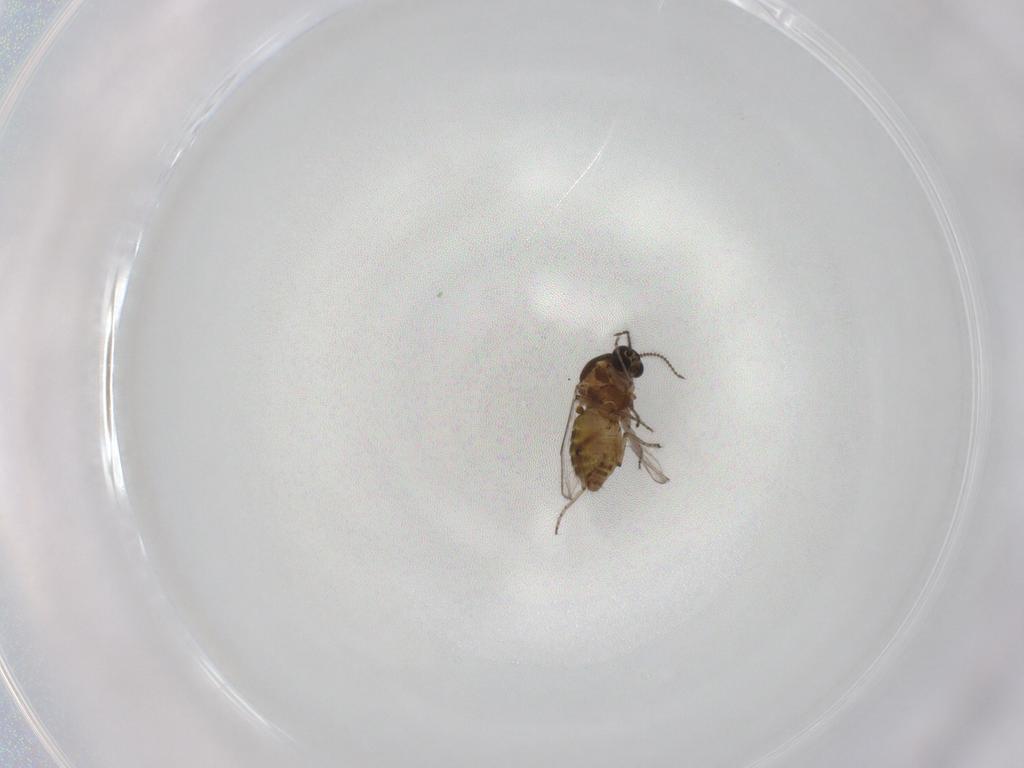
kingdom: Animalia
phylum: Arthropoda
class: Insecta
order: Diptera
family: Ceratopogonidae
